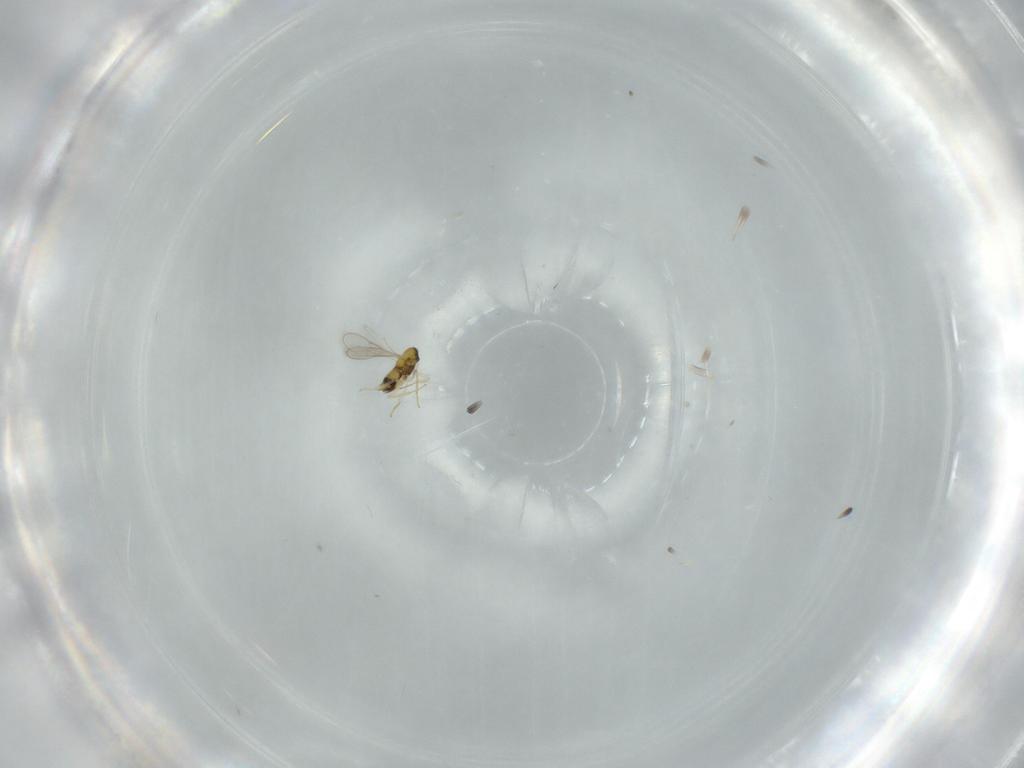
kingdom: Animalia
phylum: Arthropoda
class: Insecta
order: Hymenoptera
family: Aphelinidae
